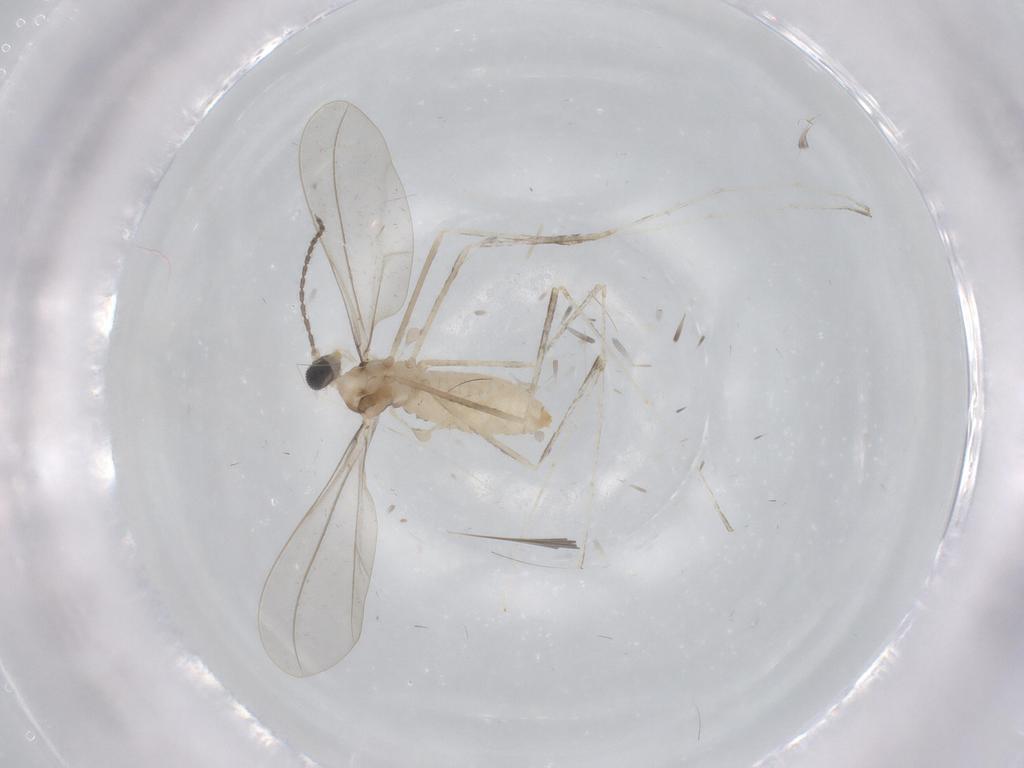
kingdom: Animalia
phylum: Arthropoda
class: Insecta
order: Diptera
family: Cecidomyiidae
